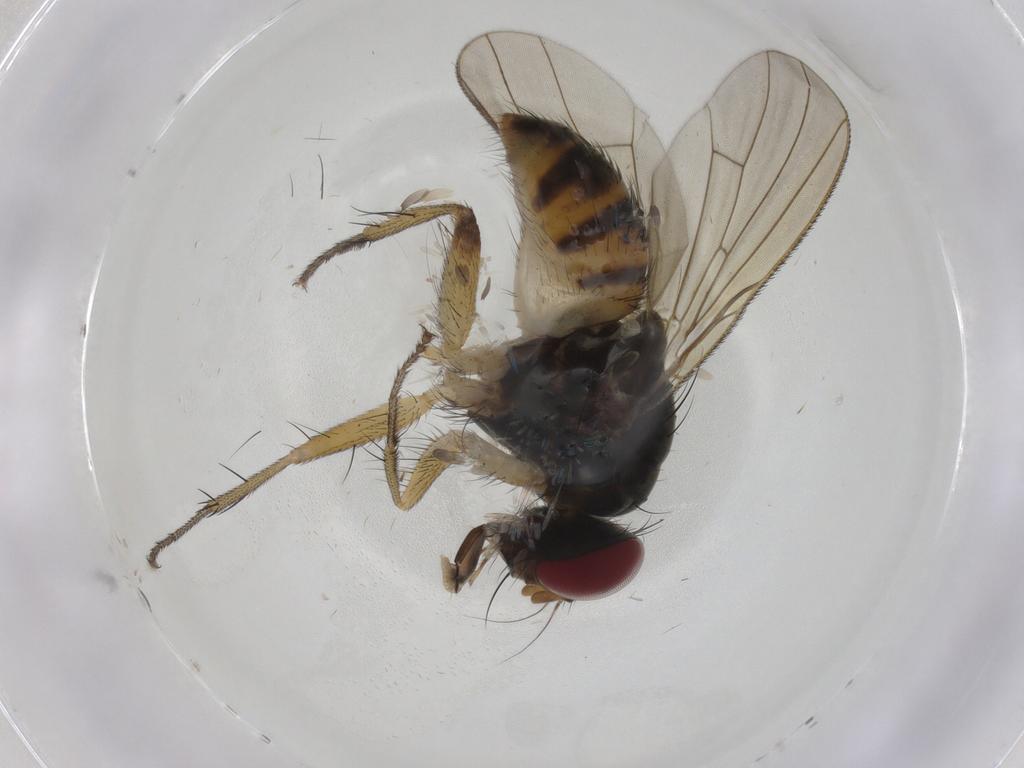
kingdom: Animalia
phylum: Arthropoda
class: Insecta
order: Diptera
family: Muscidae
